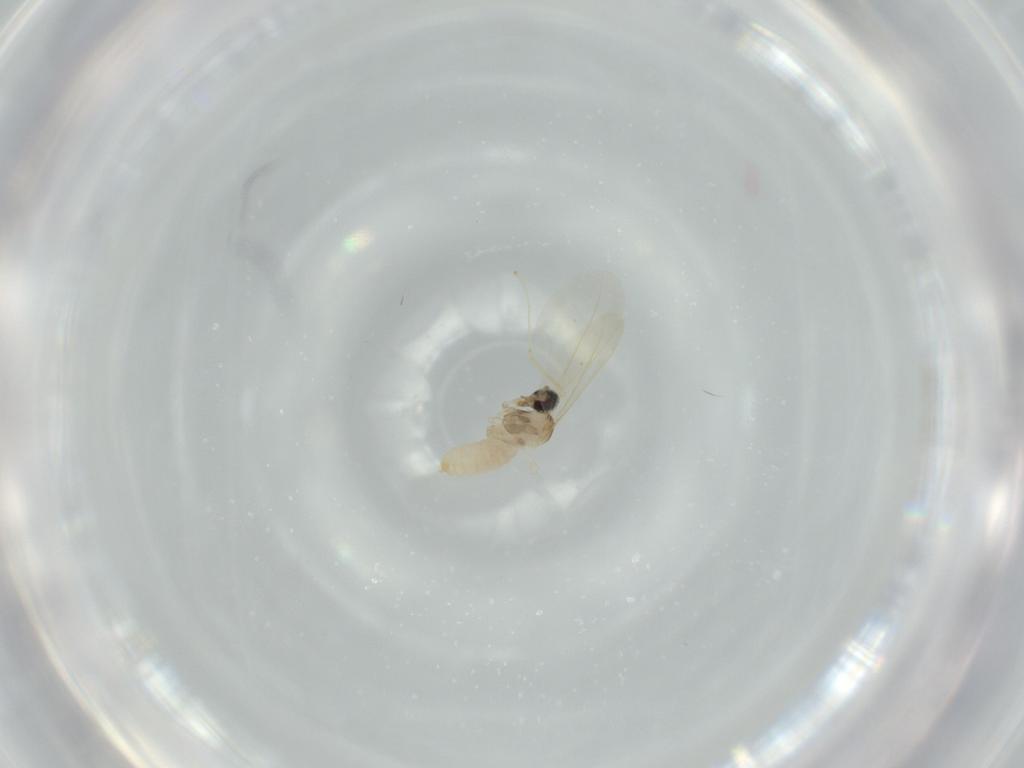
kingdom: Animalia
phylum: Arthropoda
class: Insecta
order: Diptera
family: Cecidomyiidae
